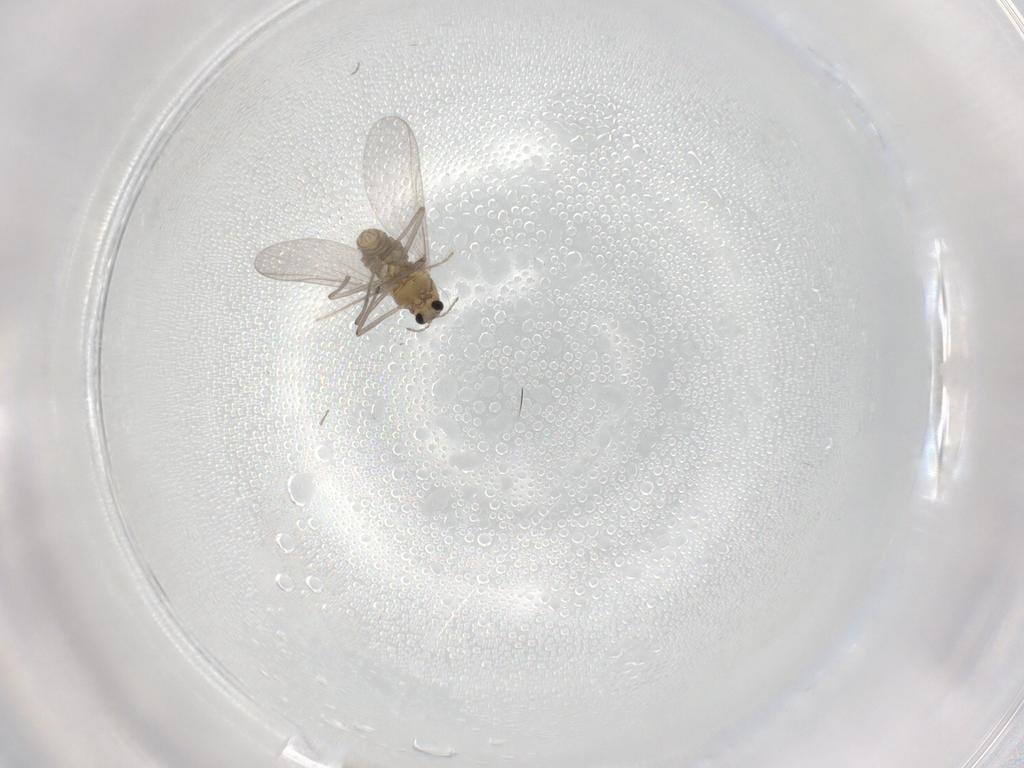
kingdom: Animalia
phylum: Arthropoda
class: Insecta
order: Diptera
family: Chironomidae
